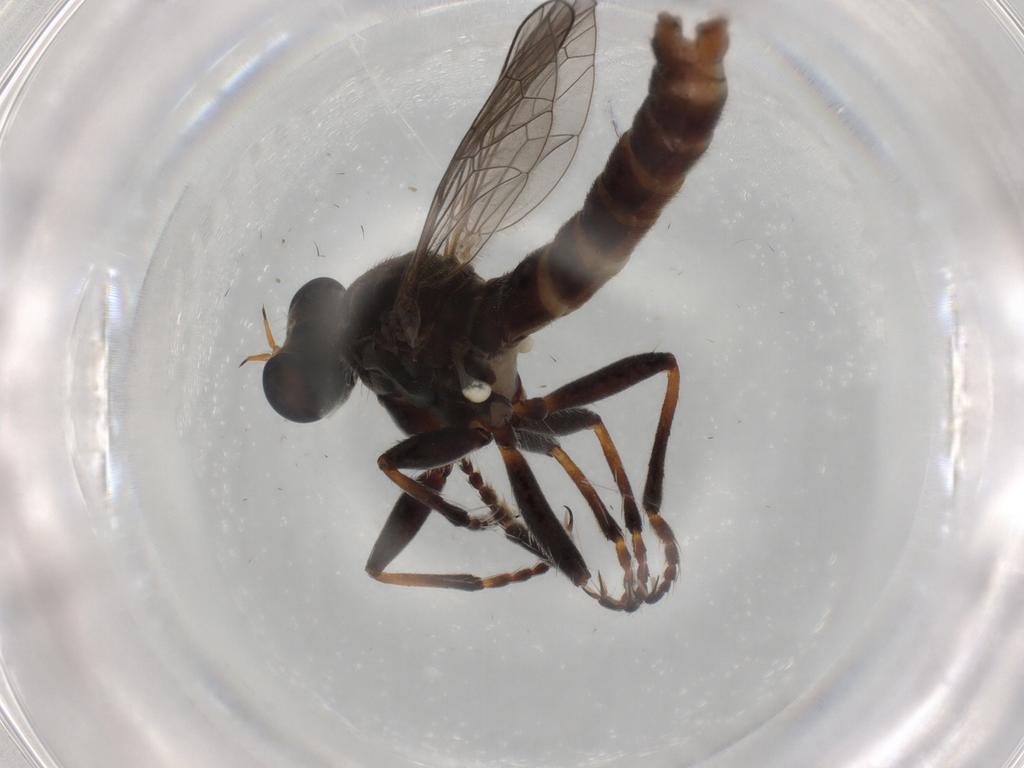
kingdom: Animalia
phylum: Arthropoda
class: Insecta
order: Diptera
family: Asilidae
